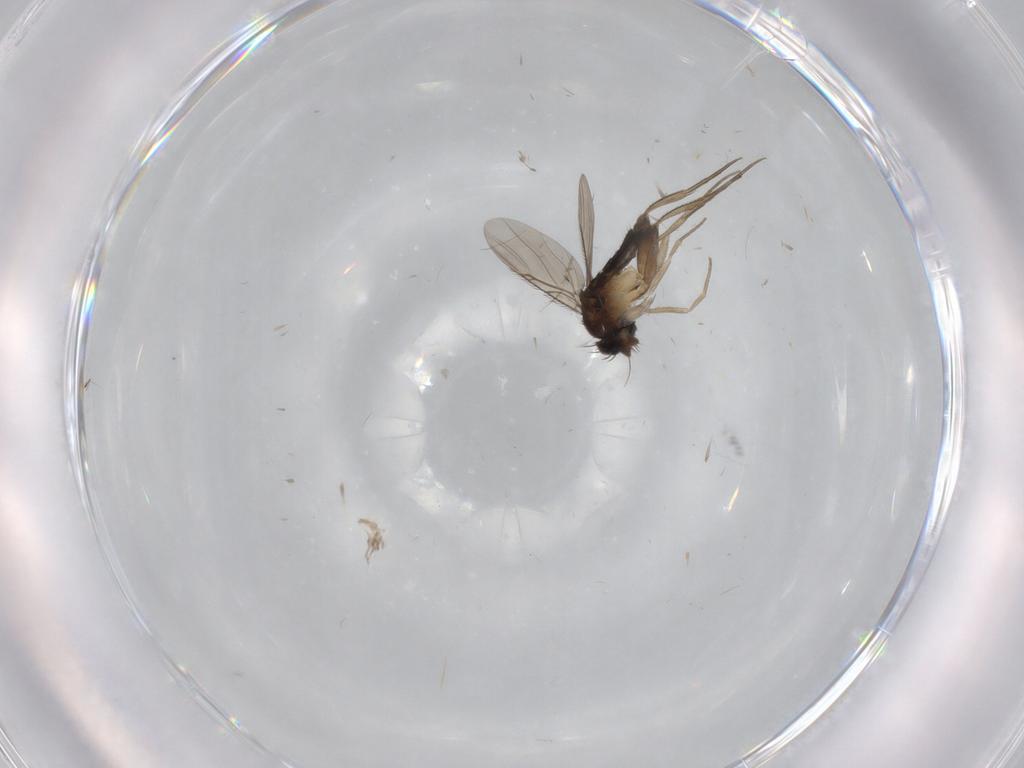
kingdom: Animalia
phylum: Arthropoda
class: Insecta
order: Diptera
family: Phoridae
